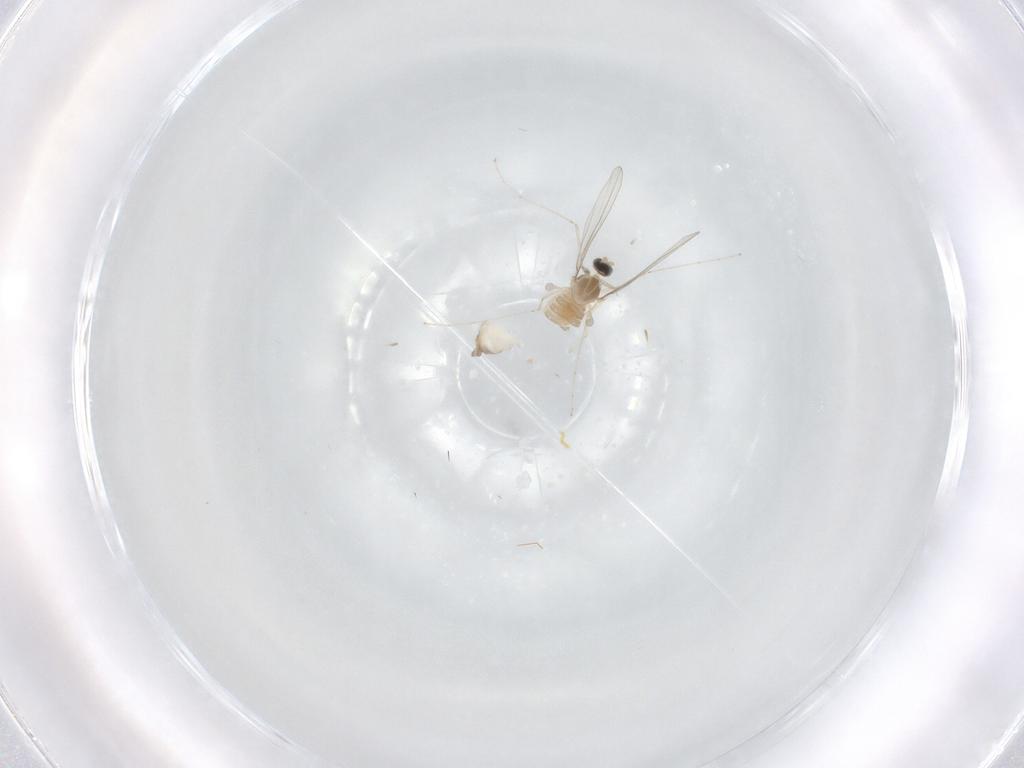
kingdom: Animalia
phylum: Arthropoda
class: Insecta
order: Diptera
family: Cecidomyiidae
